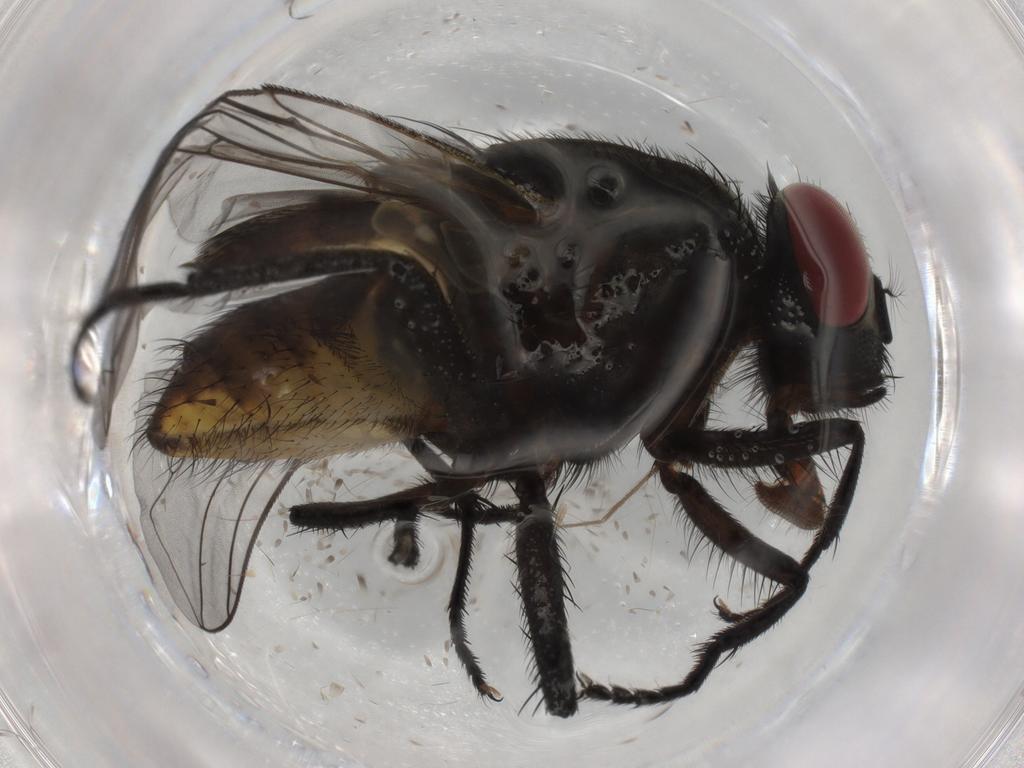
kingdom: Animalia
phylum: Arthropoda
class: Insecta
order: Diptera
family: Muscidae
